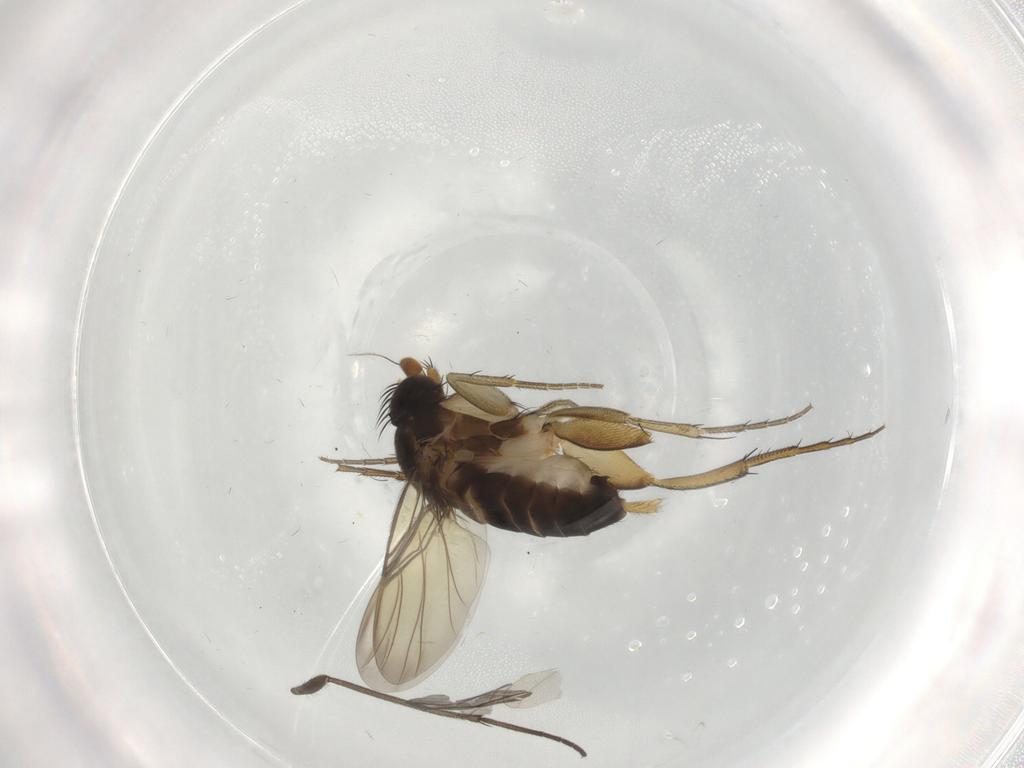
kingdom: Animalia
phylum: Arthropoda
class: Insecta
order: Diptera
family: Phoridae
